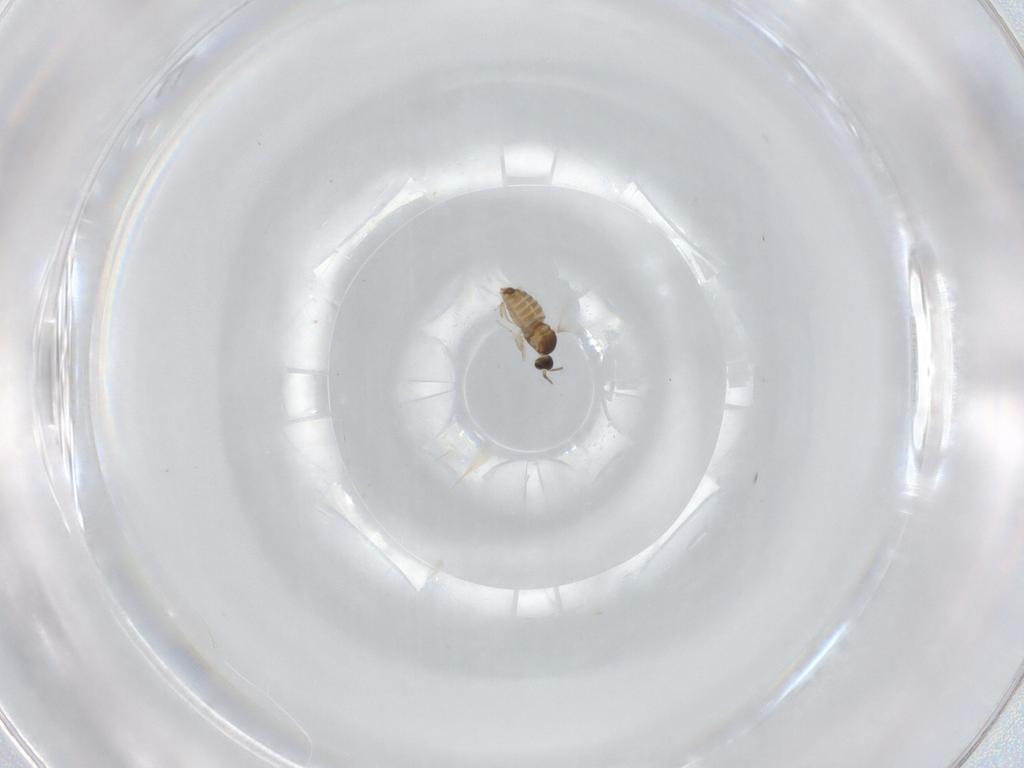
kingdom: Animalia
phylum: Arthropoda
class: Insecta
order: Diptera
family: Cecidomyiidae
